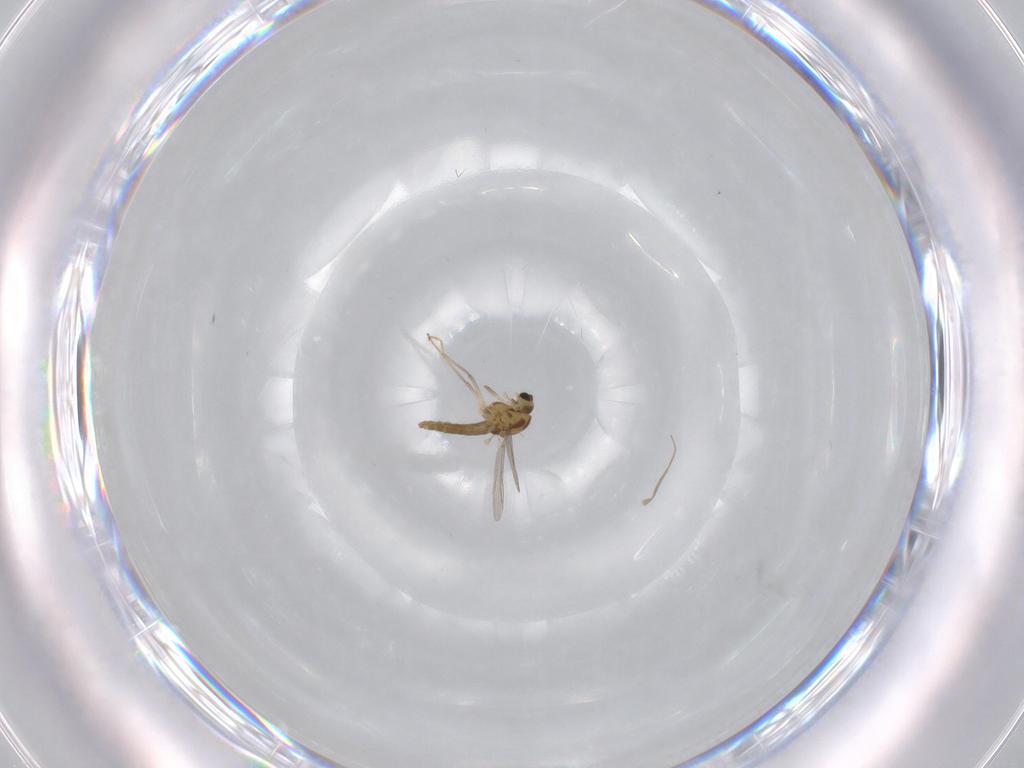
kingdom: Animalia
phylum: Arthropoda
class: Insecta
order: Diptera
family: Chironomidae
